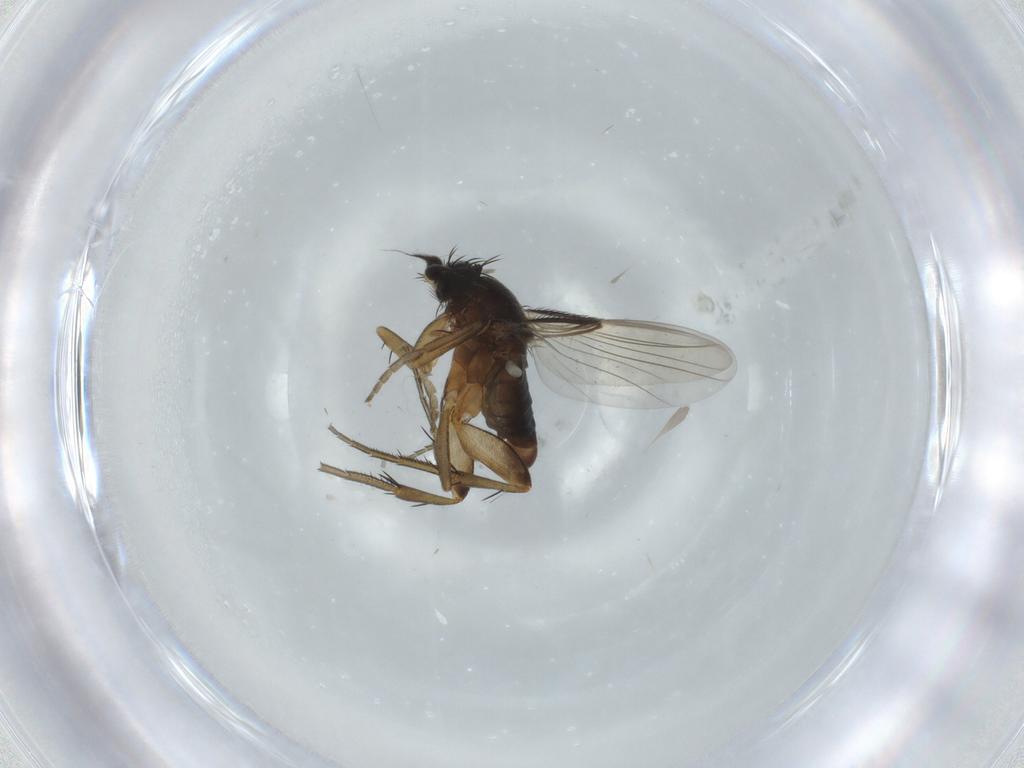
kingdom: Animalia
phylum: Arthropoda
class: Insecta
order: Diptera
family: Phoridae
